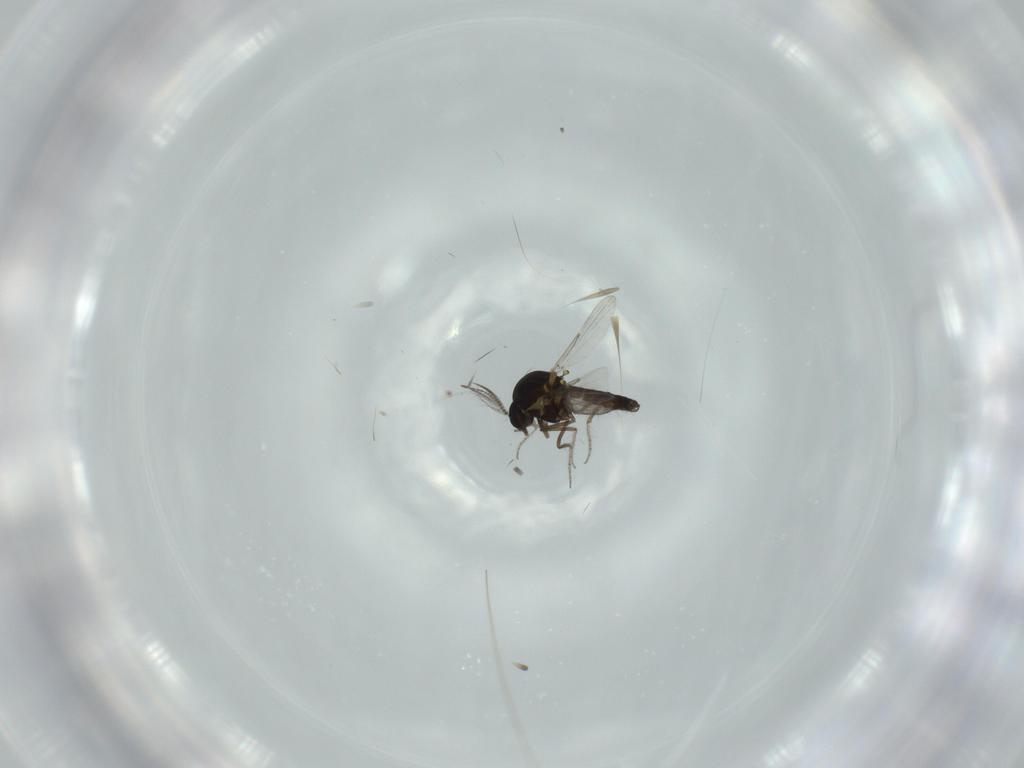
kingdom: Animalia
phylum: Arthropoda
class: Insecta
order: Diptera
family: Ceratopogonidae
